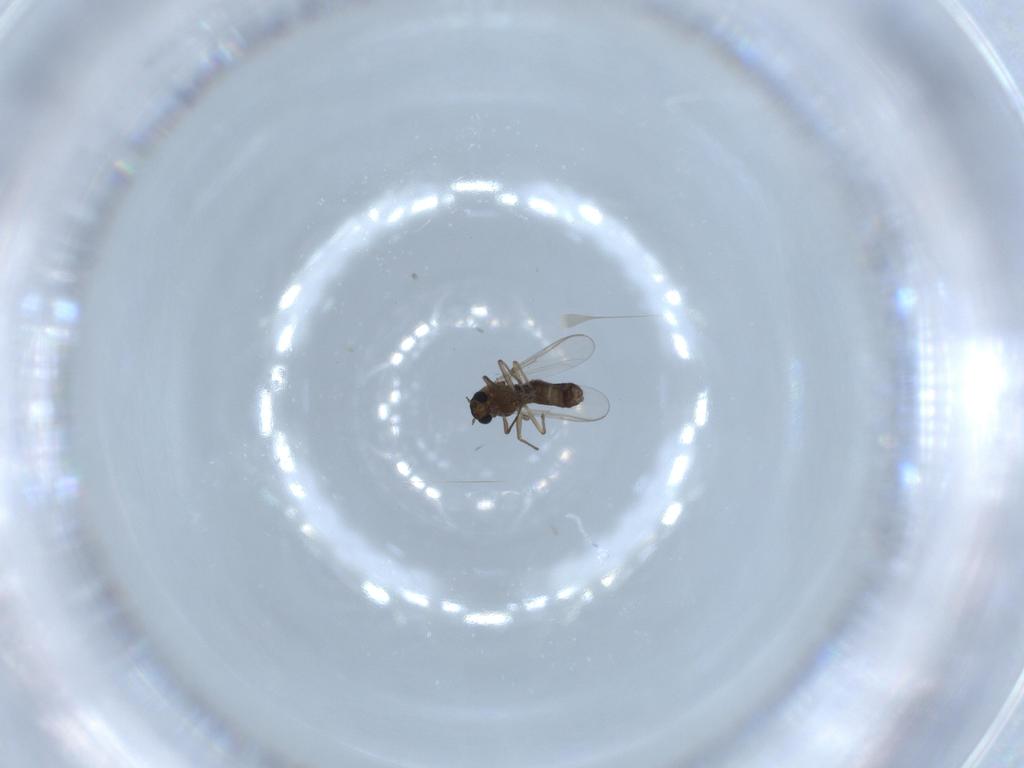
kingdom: Animalia
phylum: Arthropoda
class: Insecta
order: Diptera
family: Chironomidae
